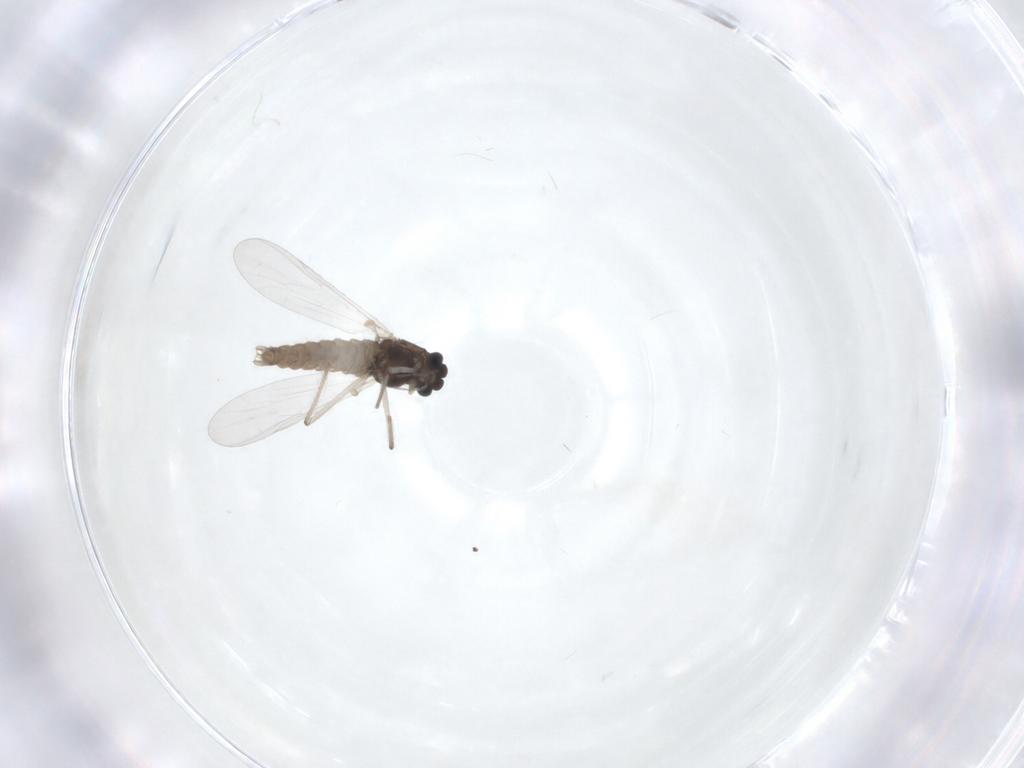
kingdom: Animalia
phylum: Arthropoda
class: Insecta
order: Diptera
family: Chironomidae
